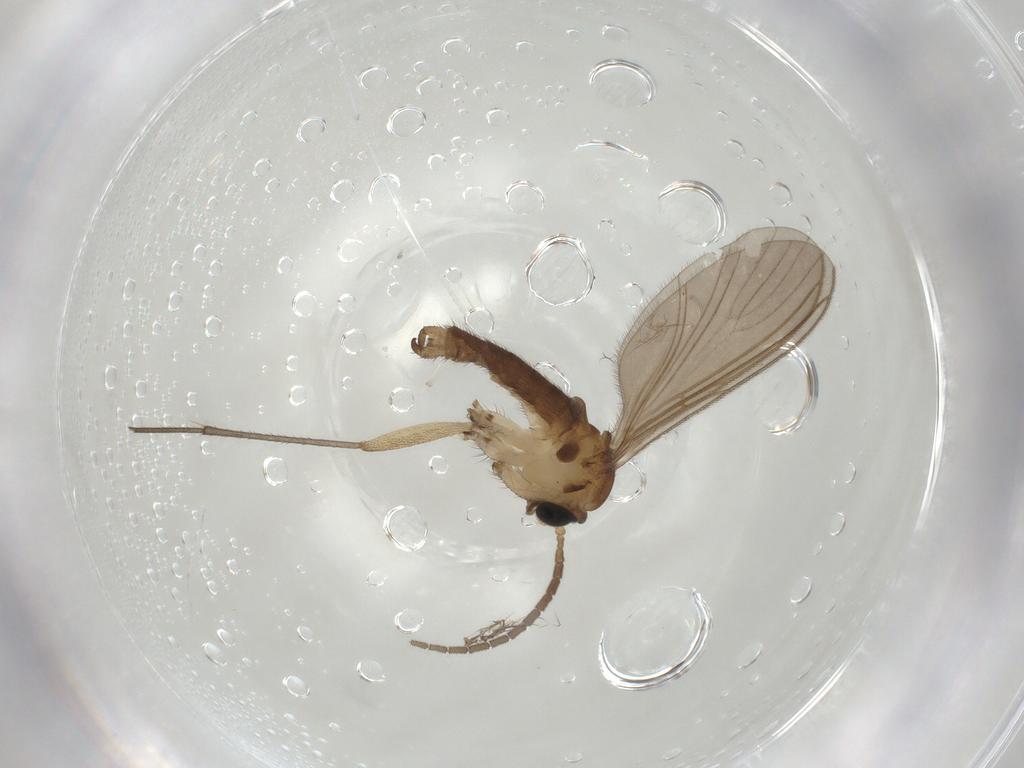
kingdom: Animalia
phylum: Arthropoda
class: Insecta
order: Diptera
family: Sciaridae
